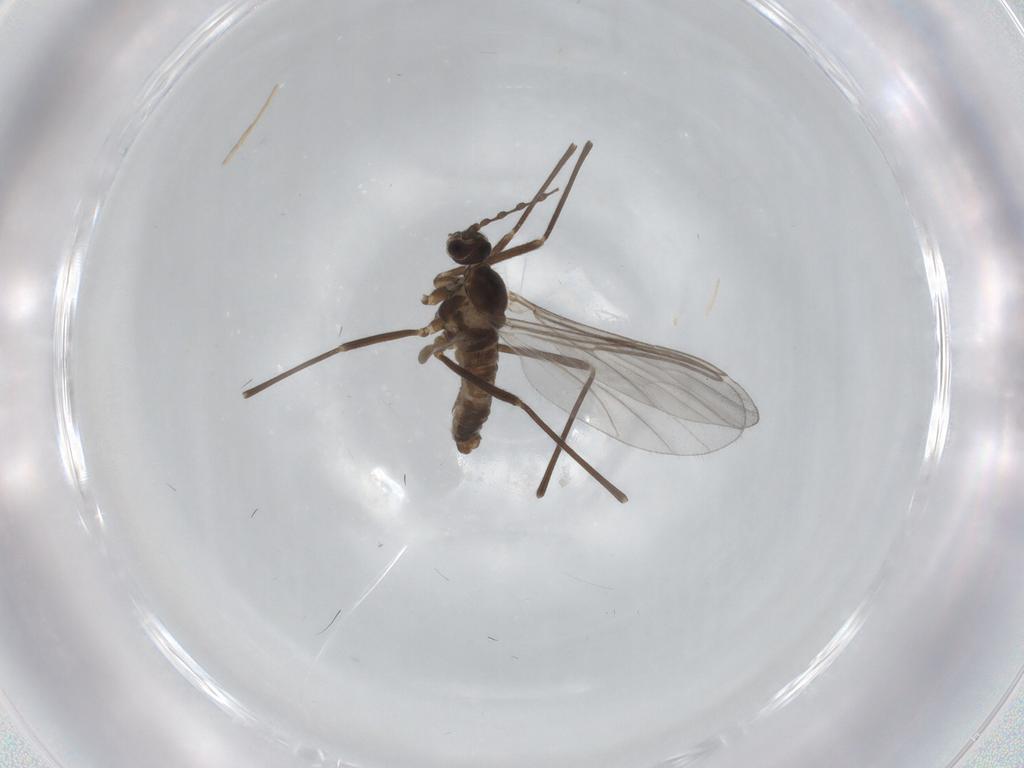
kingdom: Animalia
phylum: Arthropoda
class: Insecta
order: Diptera
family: Cecidomyiidae
